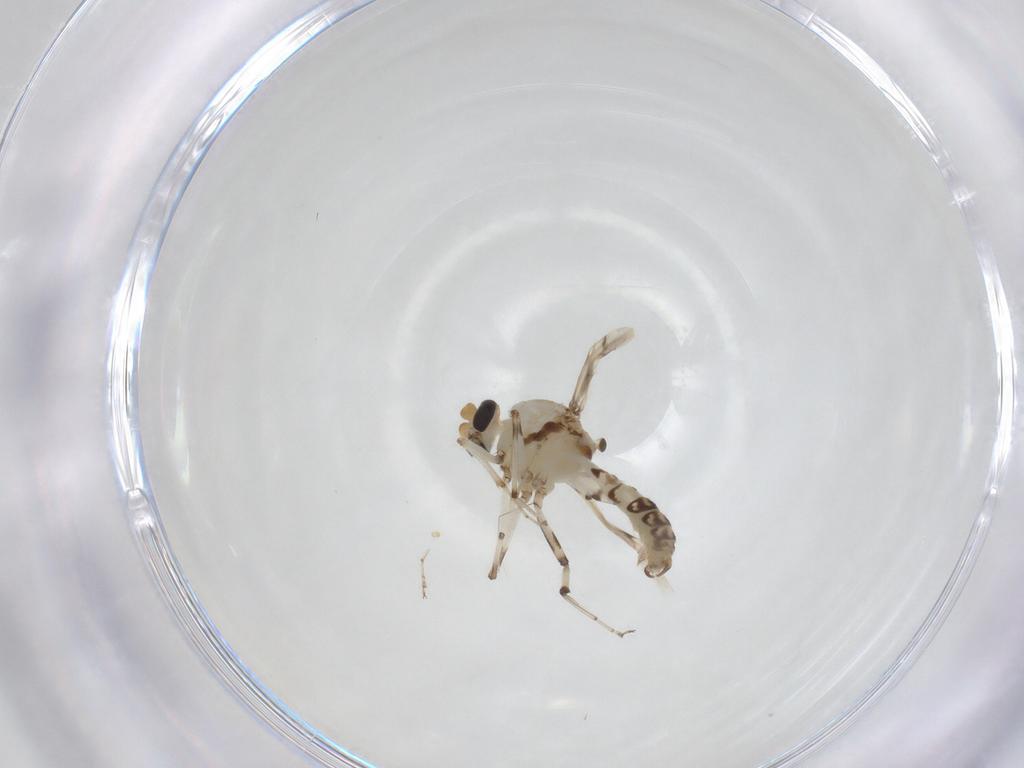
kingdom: Animalia
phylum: Arthropoda
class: Insecta
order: Diptera
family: Ceratopogonidae
